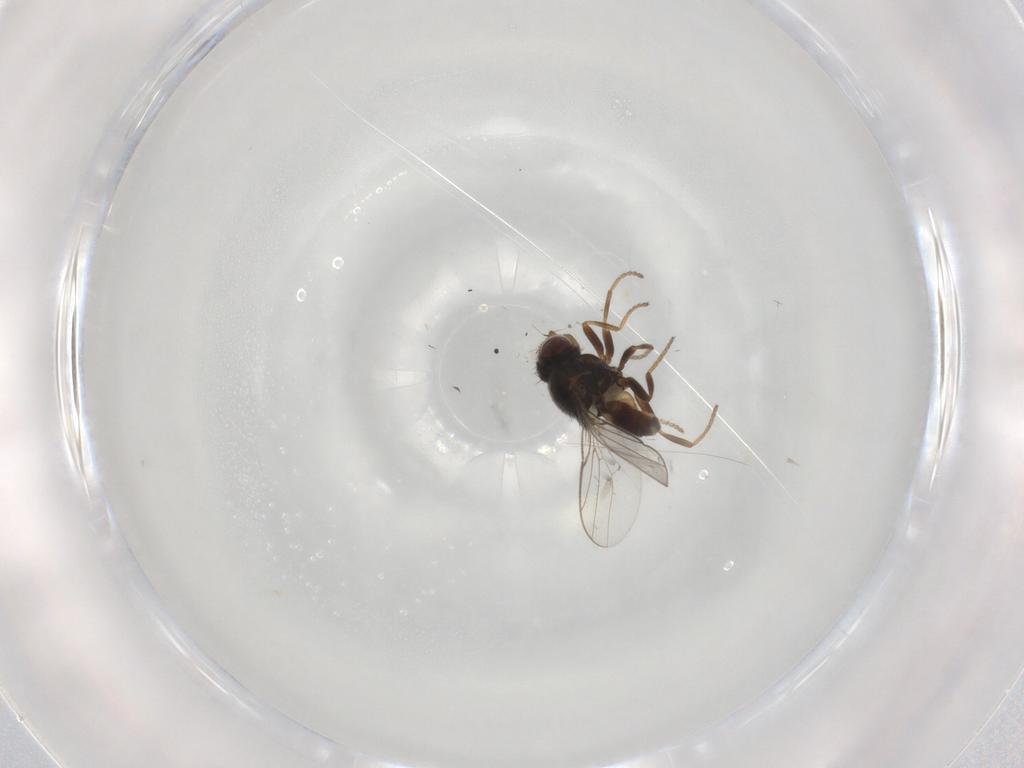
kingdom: Animalia
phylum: Arthropoda
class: Insecta
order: Diptera
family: Chloropidae
